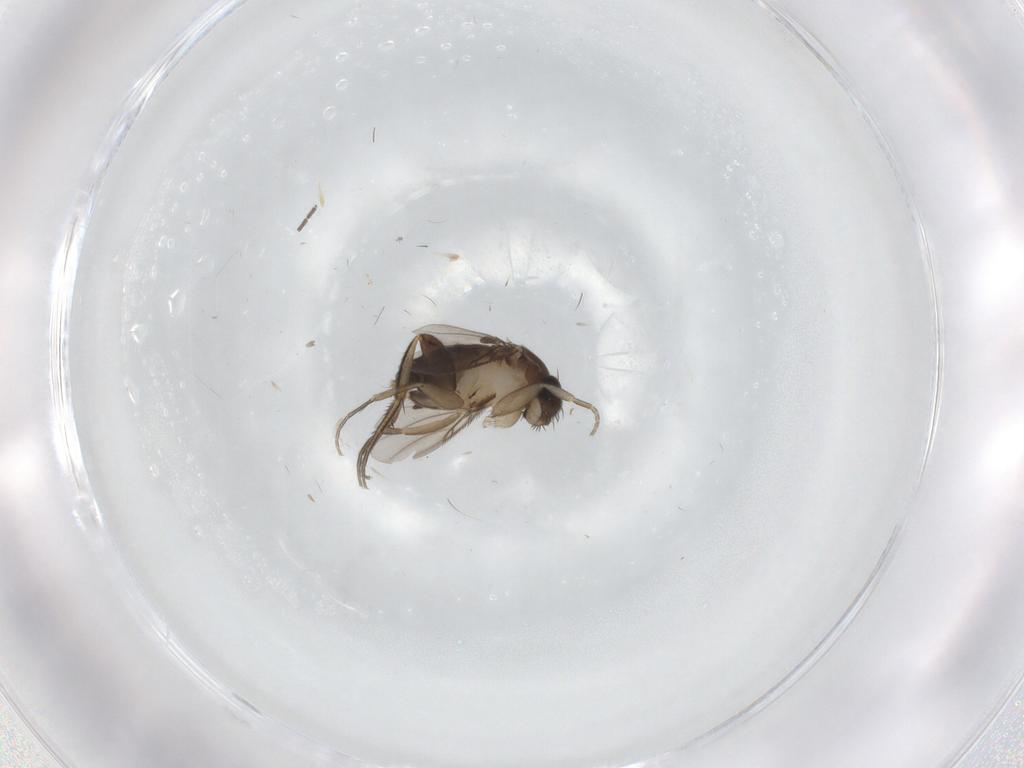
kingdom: Animalia
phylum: Arthropoda
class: Insecta
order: Diptera
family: Phoridae
